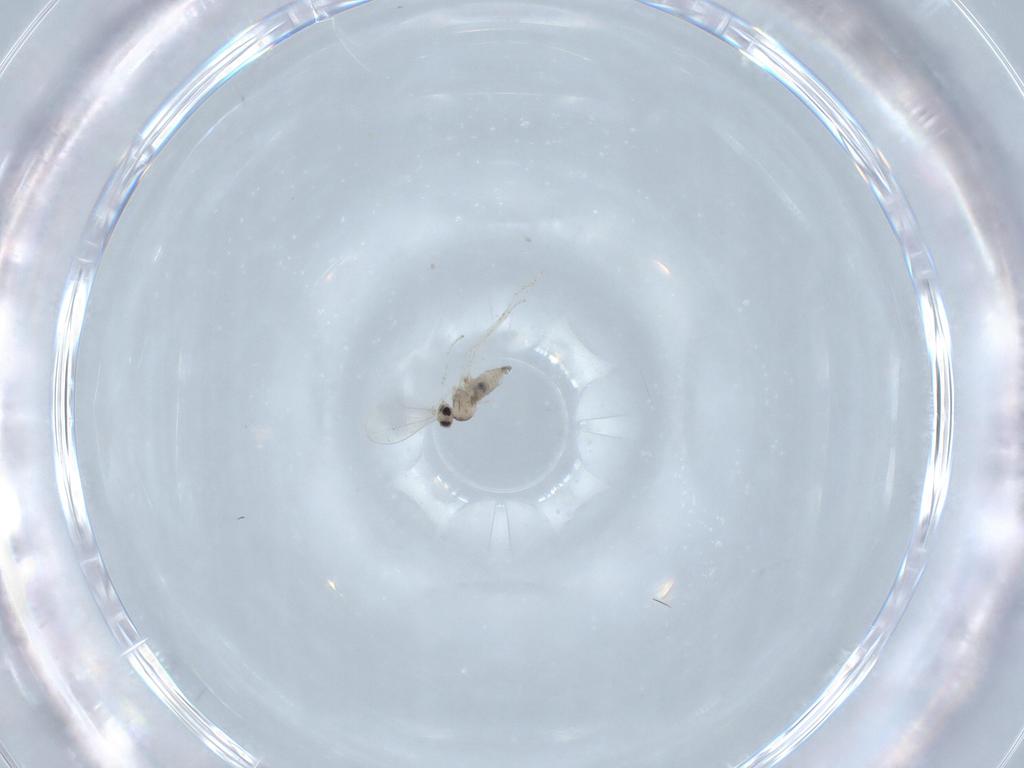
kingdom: Animalia
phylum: Arthropoda
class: Insecta
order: Diptera
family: Cecidomyiidae
